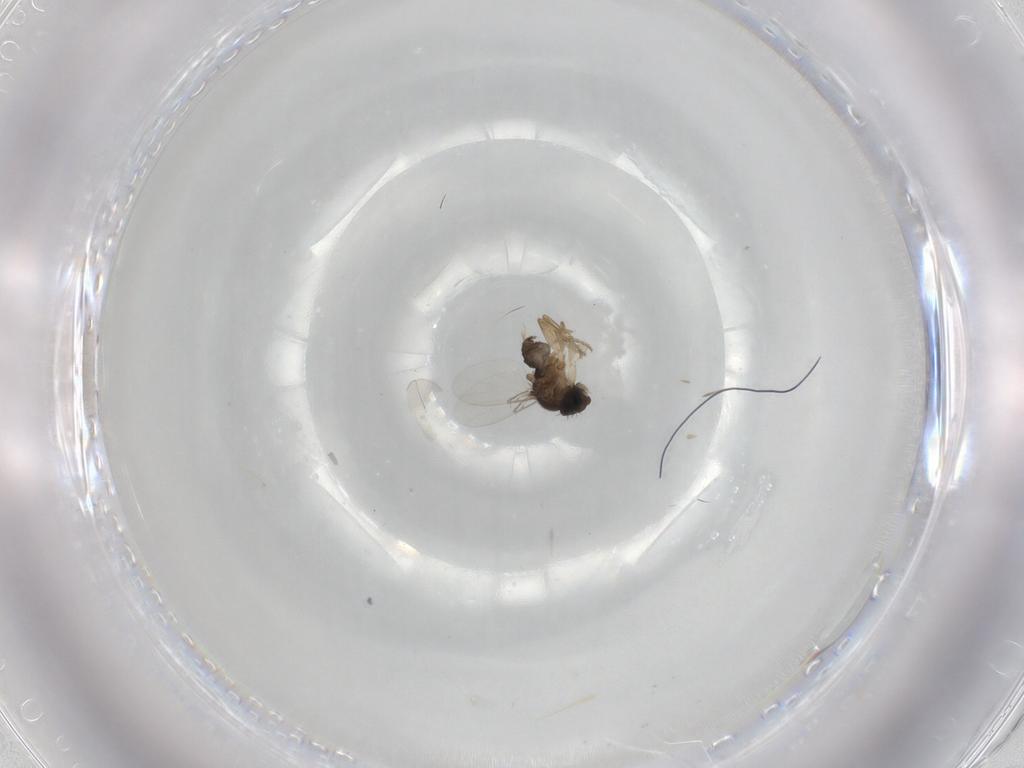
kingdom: Animalia
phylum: Arthropoda
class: Insecta
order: Diptera
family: Phoridae
